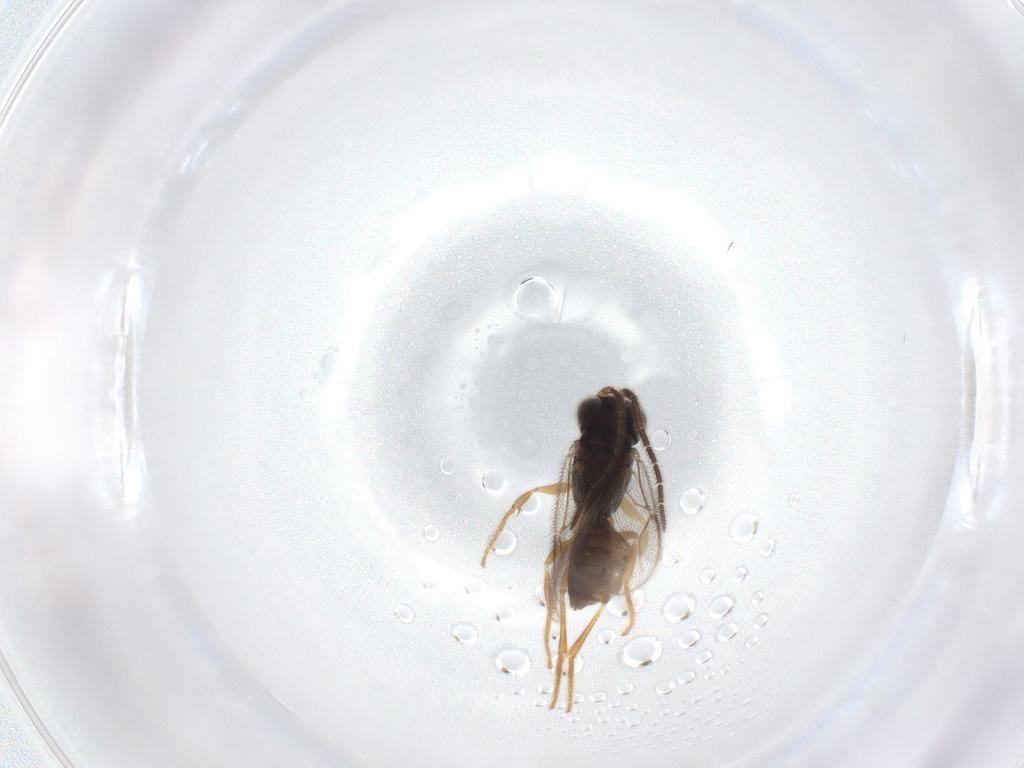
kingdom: Animalia
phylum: Arthropoda
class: Insecta
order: Hymenoptera
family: Dryinidae
